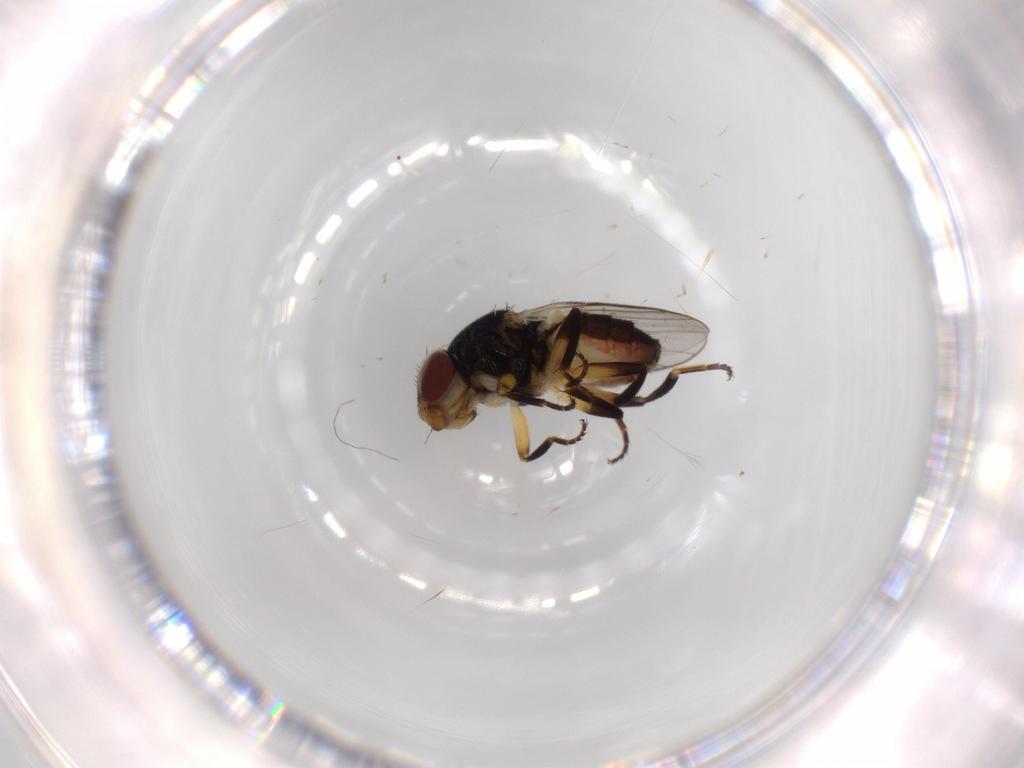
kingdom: Animalia
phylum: Arthropoda
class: Insecta
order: Diptera
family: Chloropidae
